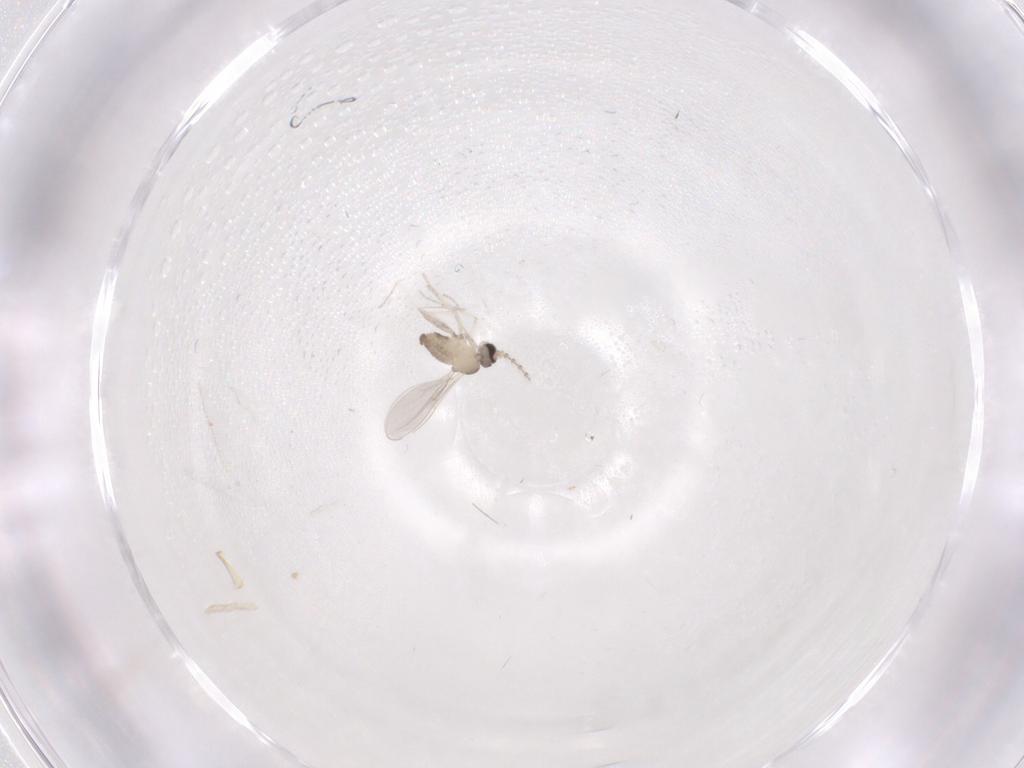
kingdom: Animalia
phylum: Arthropoda
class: Insecta
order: Diptera
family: Cecidomyiidae
